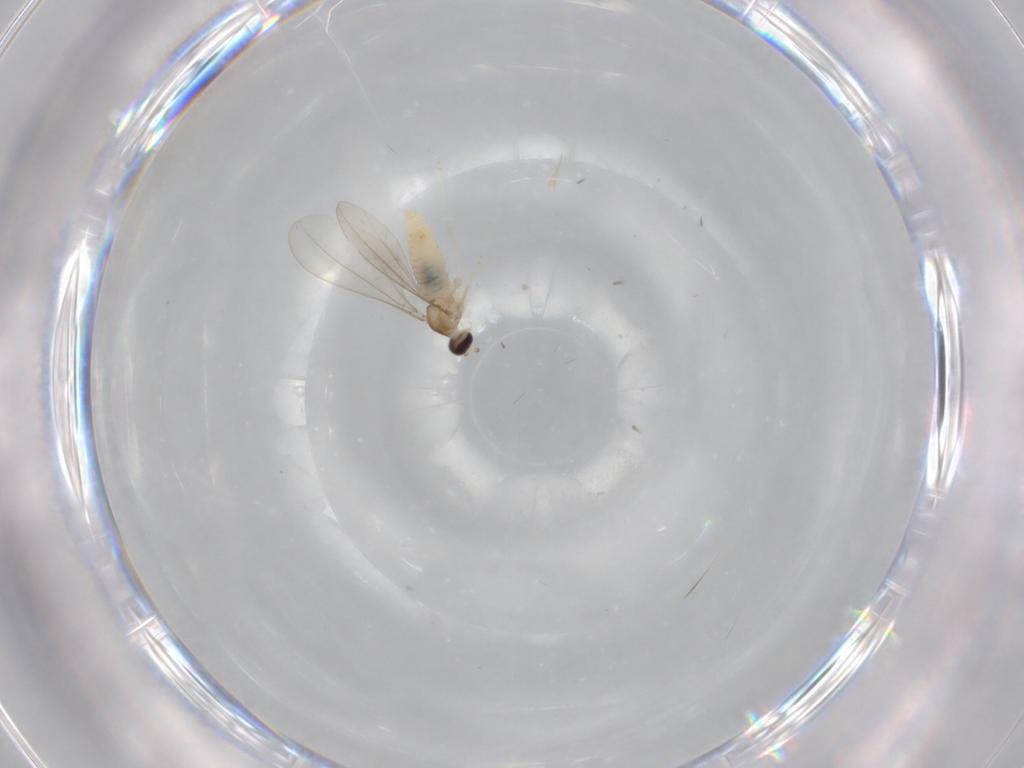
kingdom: Animalia
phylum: Arthropoda
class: Insecta
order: Diptera
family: Cecidomyiidae
